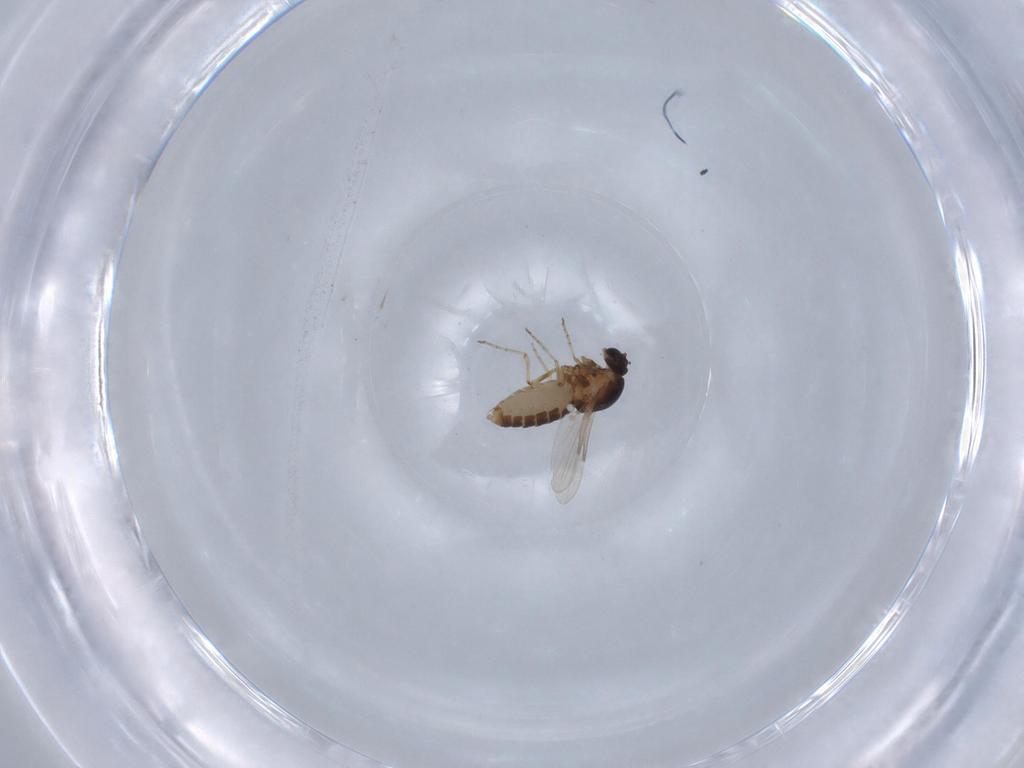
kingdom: Animalia
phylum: Arthropoda
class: Insecta
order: Diptera
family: Ceratopogonidae
